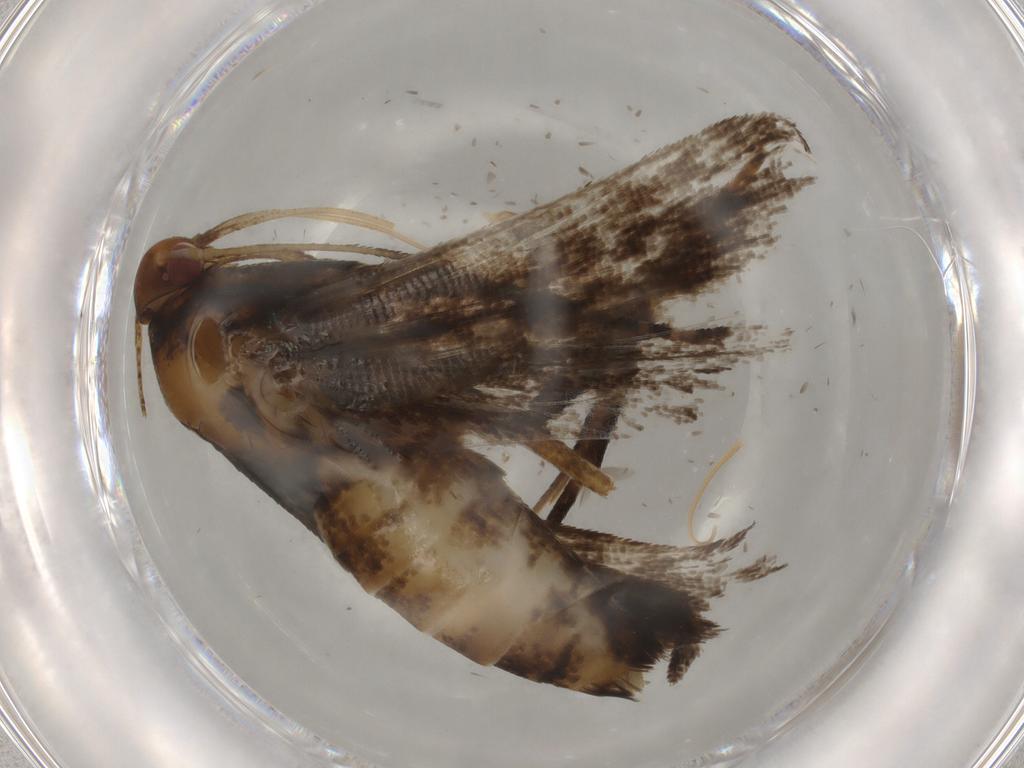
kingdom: Animalia
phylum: Arthropoda
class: Insecta
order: Lepidoptera
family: Gelechiidae
